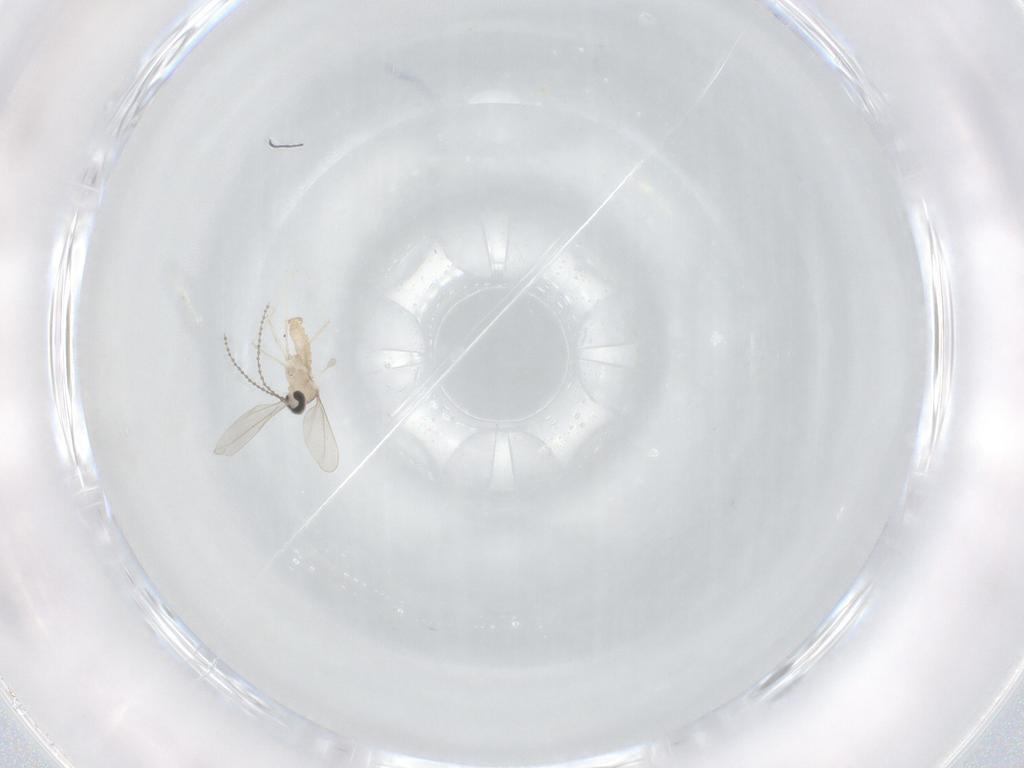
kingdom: Animalia
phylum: Arthropoda
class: Insecta
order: Diptera
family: Cecidomyiidae
